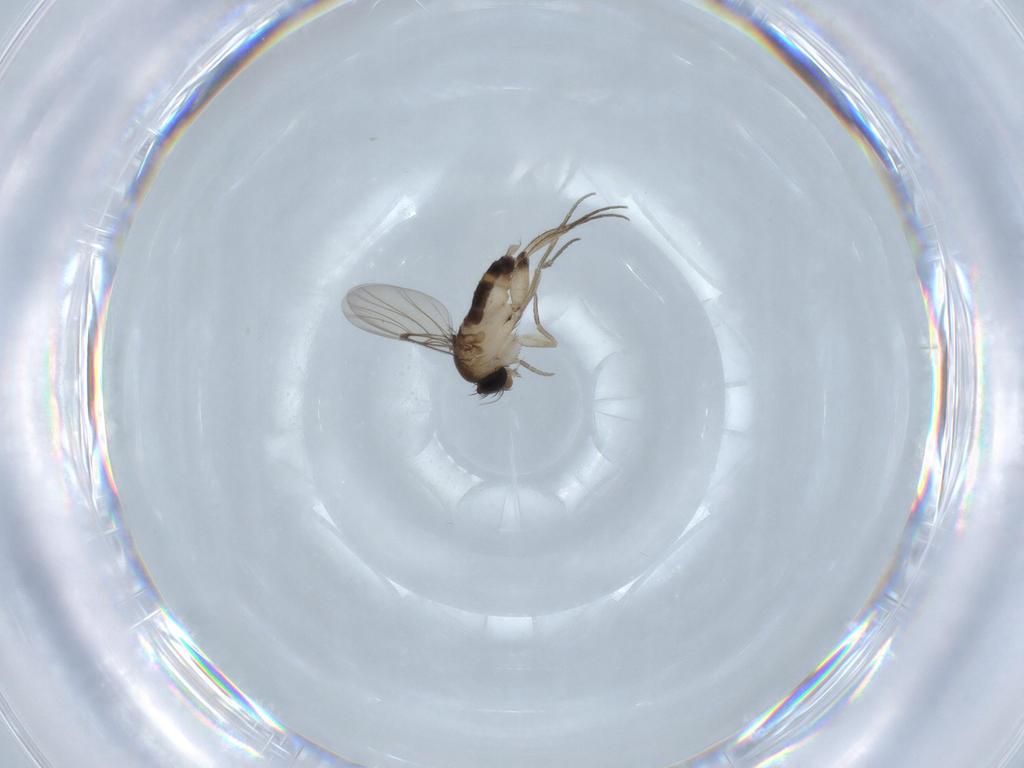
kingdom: Animalia
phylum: Arthropoda
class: Insecta
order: Diptera
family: Phoridae
